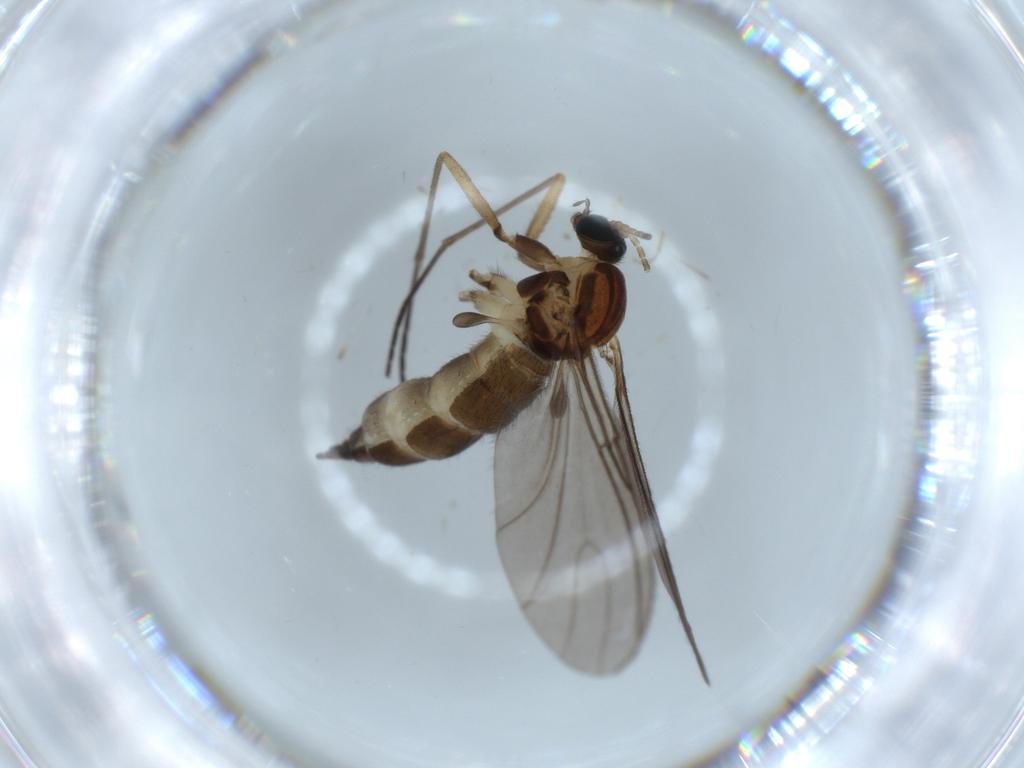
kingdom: Animalia
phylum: Arthropoda
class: Insecta
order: Diptera
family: Sciaridae
